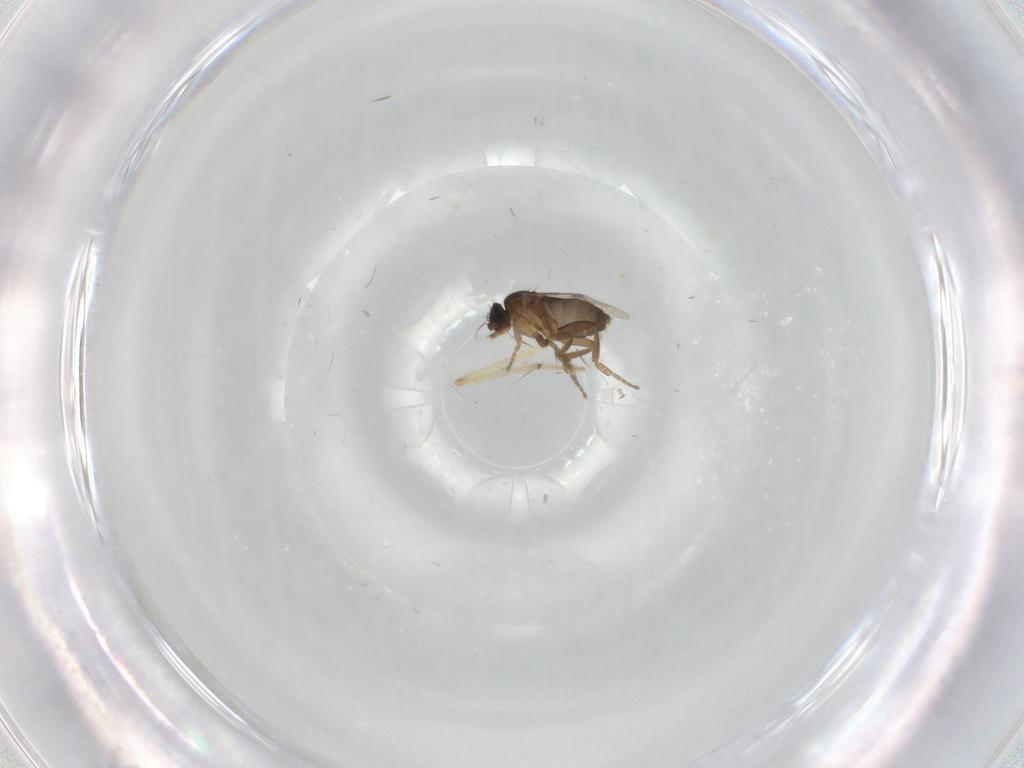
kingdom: Animalia
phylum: Arthropoda
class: Insecta
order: Diptera
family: Chironomidae
